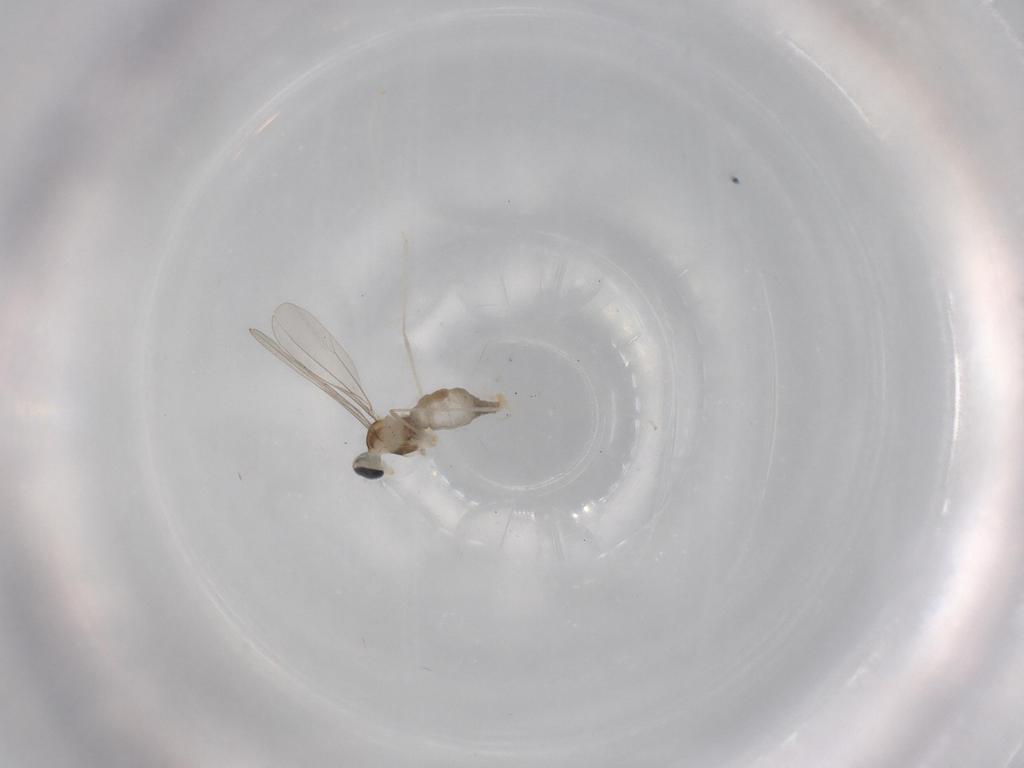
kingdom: Animalia
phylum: Arthropoda
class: Insecta
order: Diptera
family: Cecidomyiidae
